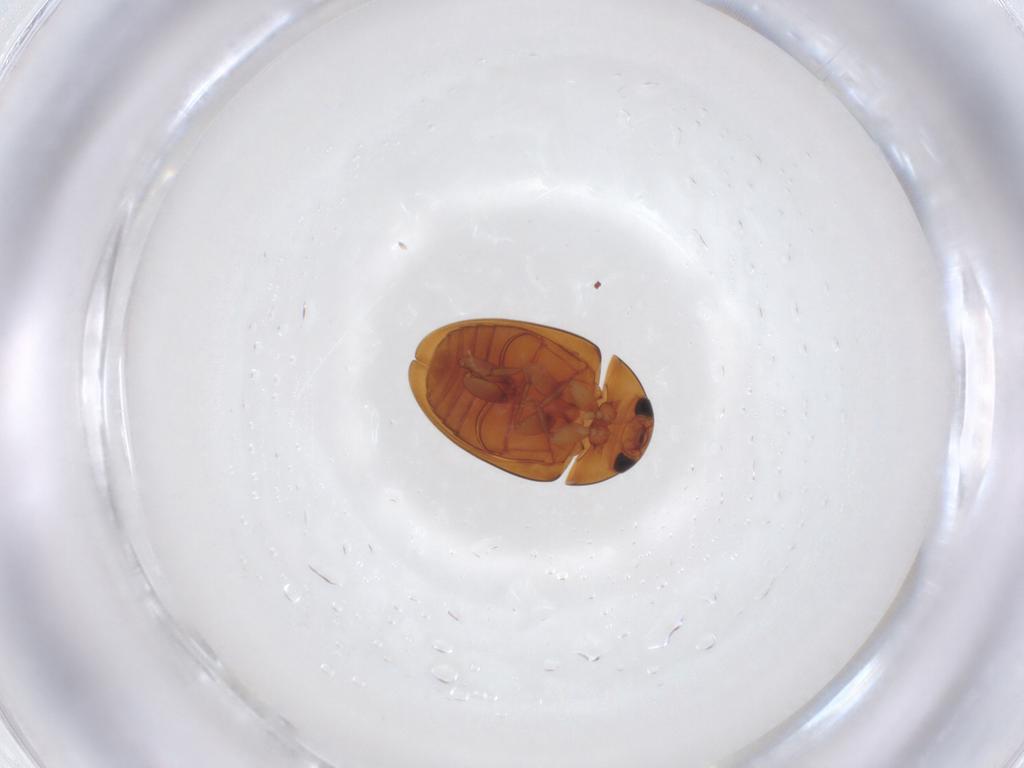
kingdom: Animalia
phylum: Arthropoda
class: Insecta
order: Coleoptera
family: Phalacridae
